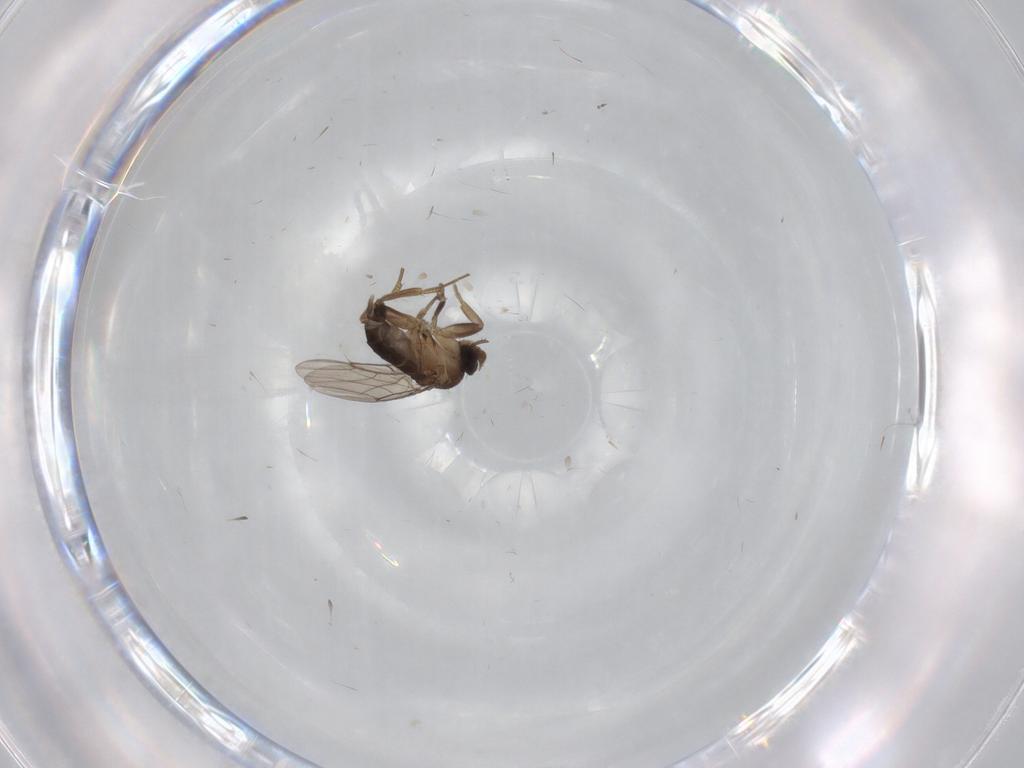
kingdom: Animalia
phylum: Arthropoda
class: Insecta
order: Diptera
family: Phoridae
